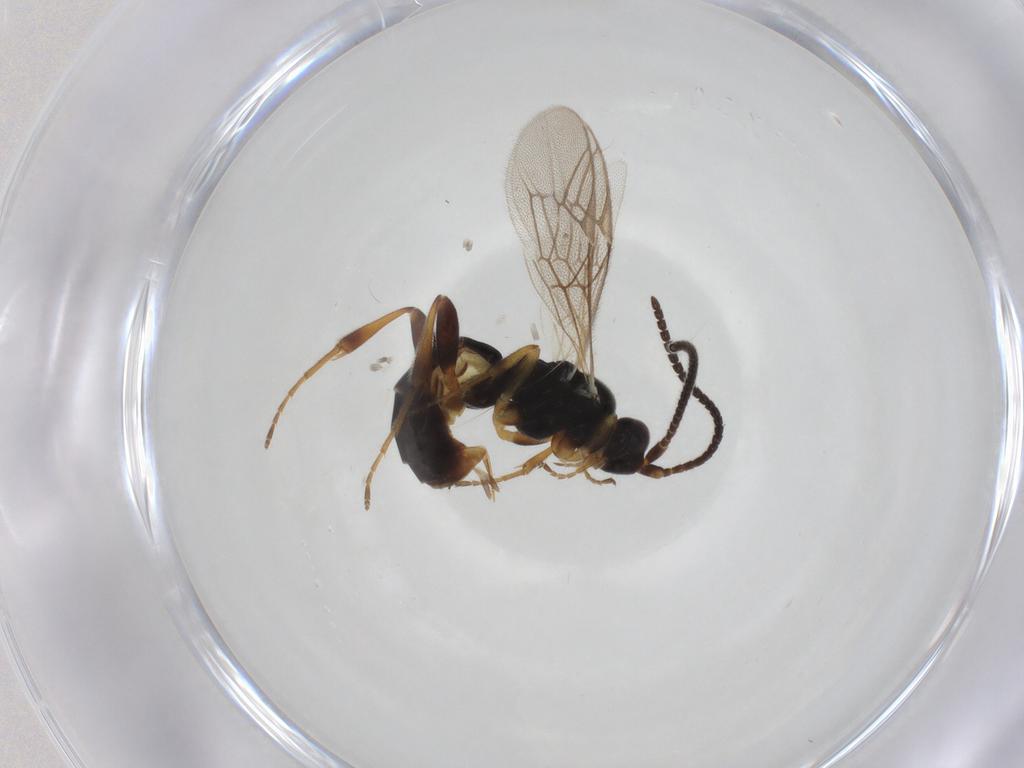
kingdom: Animalia
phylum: Arthropoda
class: Insecta
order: Hymenoptera
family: Ichneumonidae
